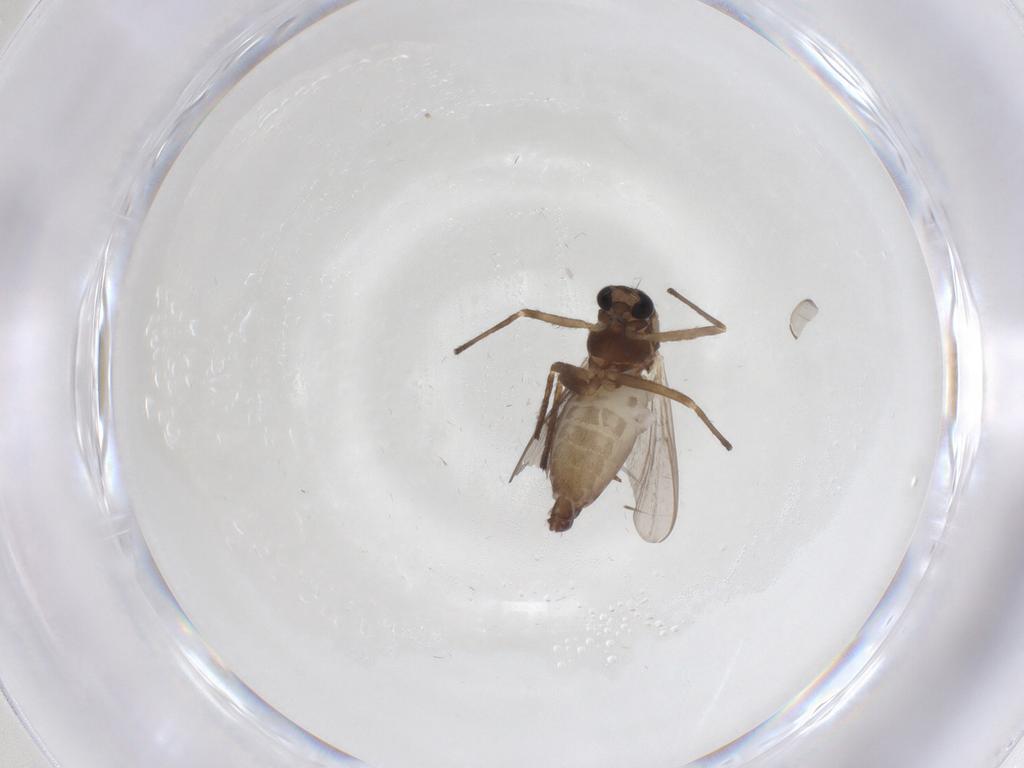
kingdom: Animalia
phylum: Arthropoda
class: Insecta
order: Diptera
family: Chironomidae
